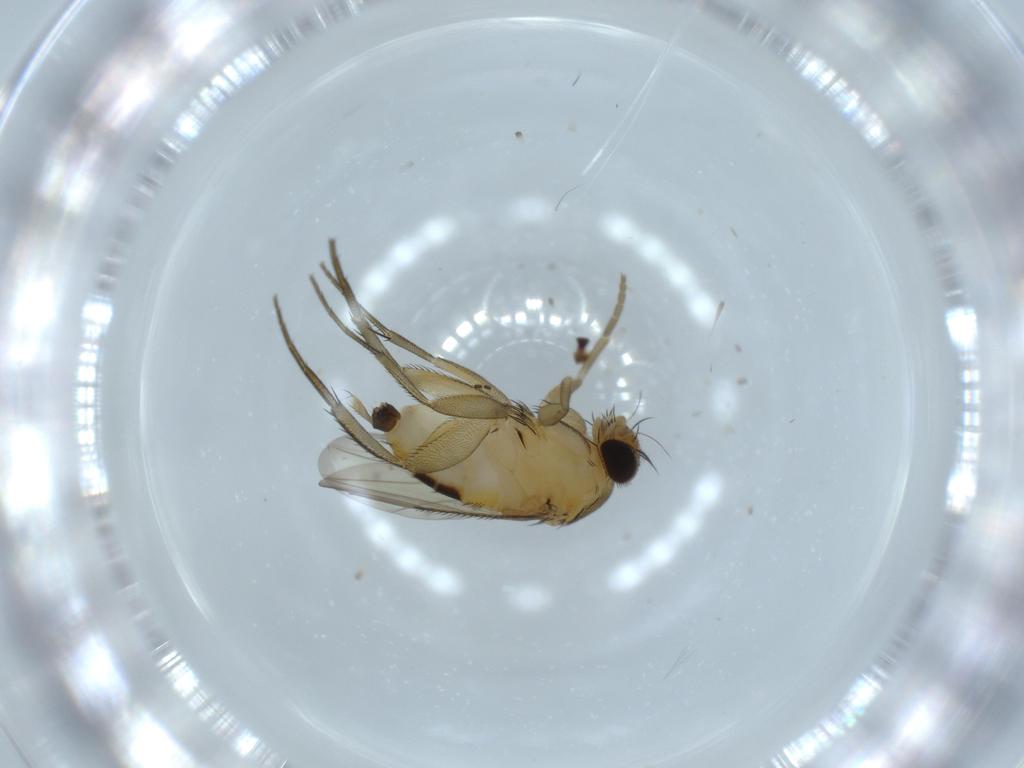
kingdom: Animalia
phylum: Arthropoda
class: Insecta
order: Diptera
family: Phoridae
